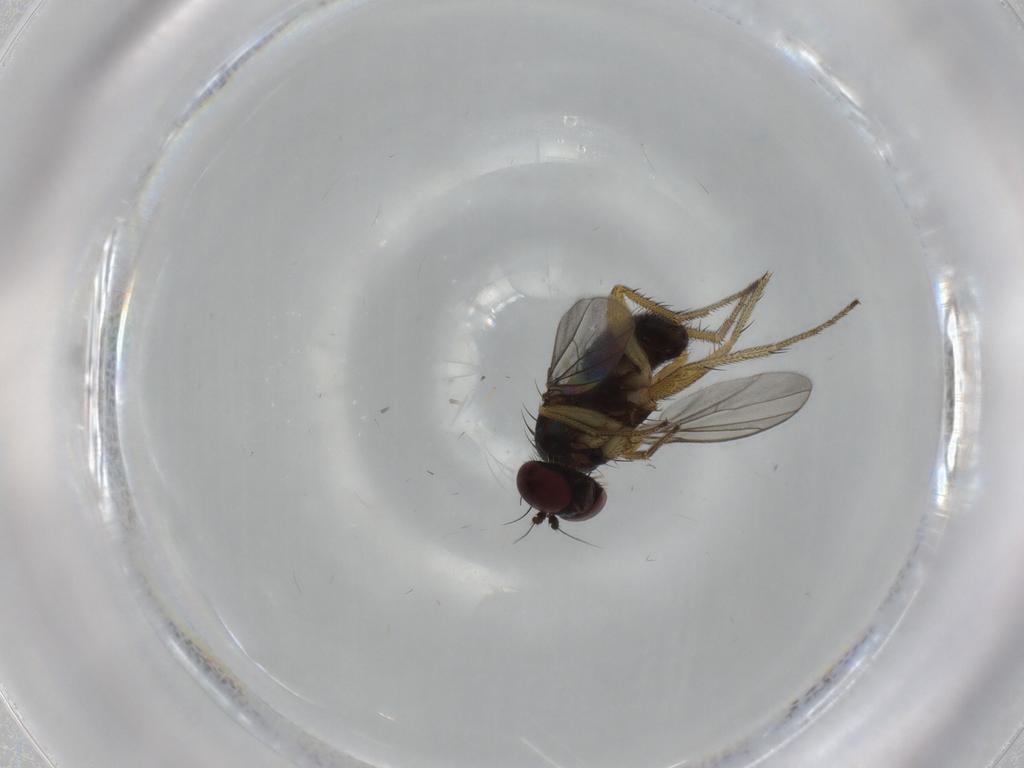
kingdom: Animalia
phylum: Arthropoda
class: Insecta
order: Diptera
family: Dolichopodidae
